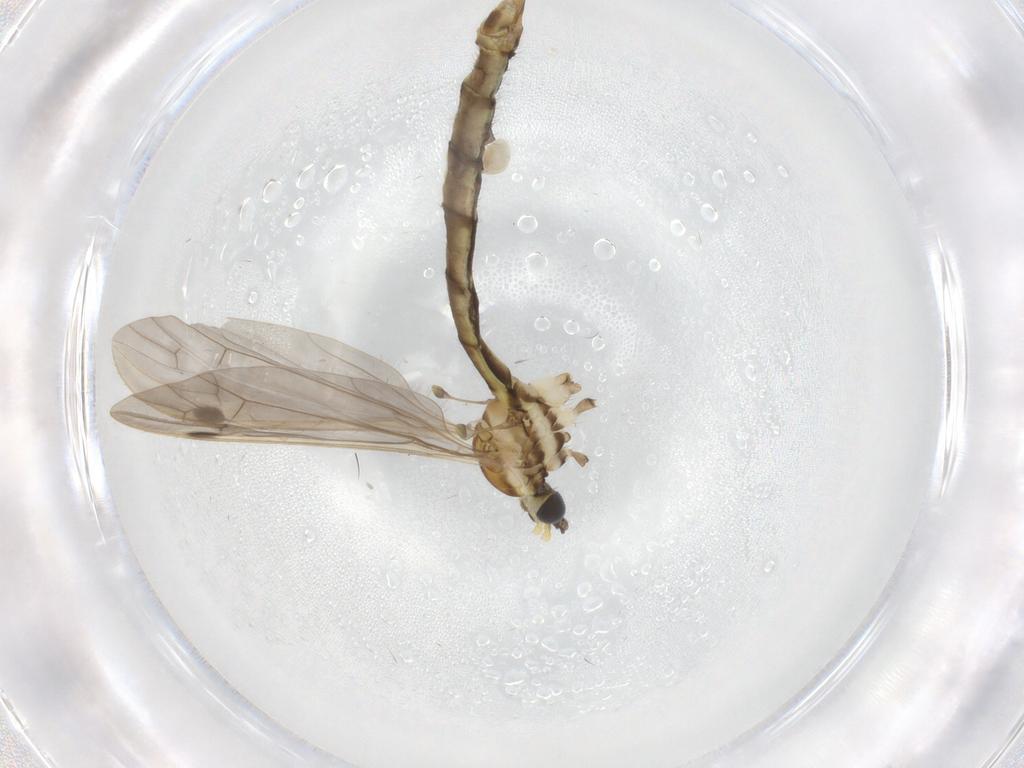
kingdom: Animalia
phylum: Arthropoda
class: Insecta
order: Diptera
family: Limoniidae
